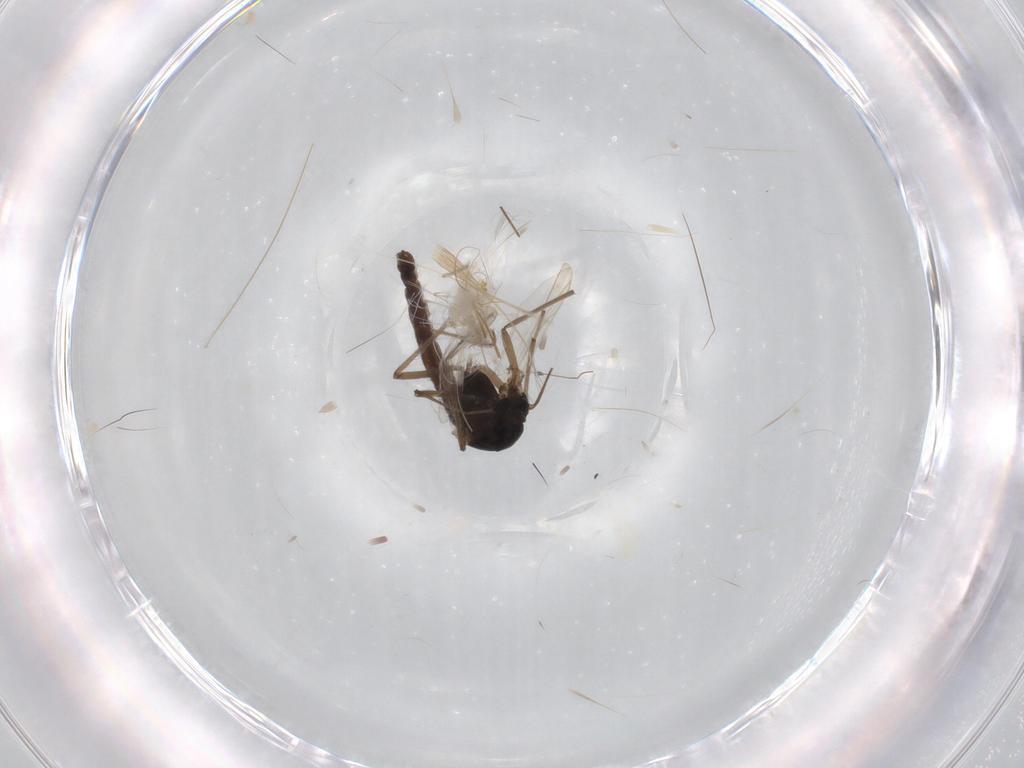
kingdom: Animalia
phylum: Arthropoda
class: Insecta
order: Diptera
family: Chironomidae
